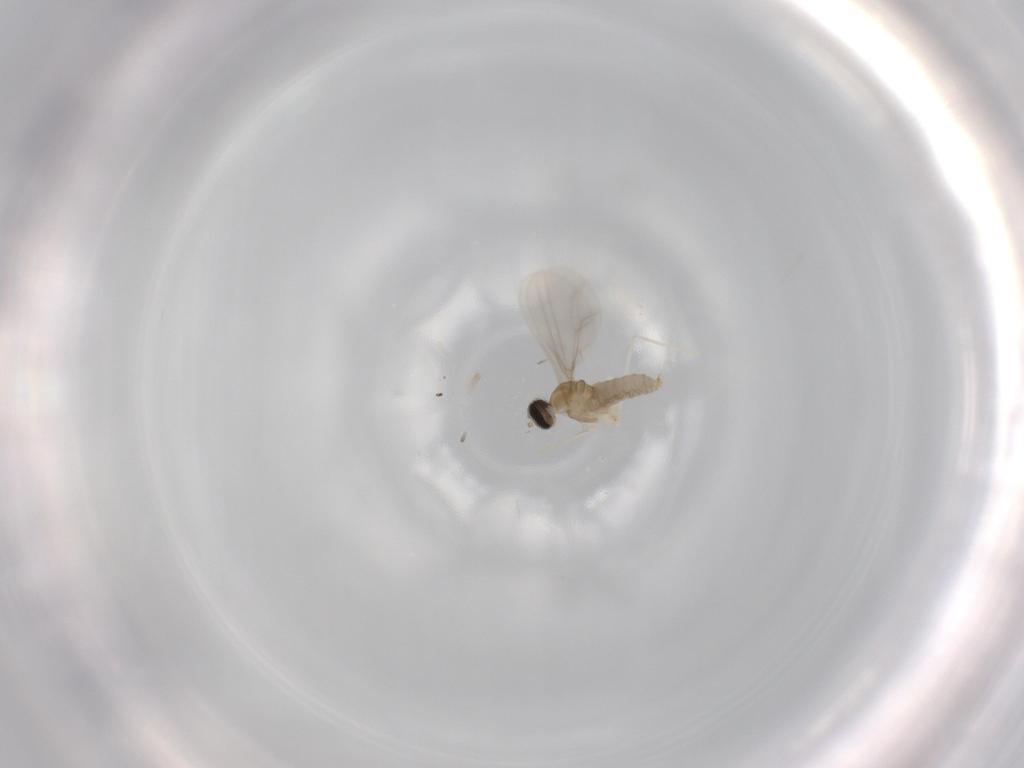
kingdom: Animalia
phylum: Arthropoda
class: Insecta
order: Diptera
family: Cecidomyiidae
